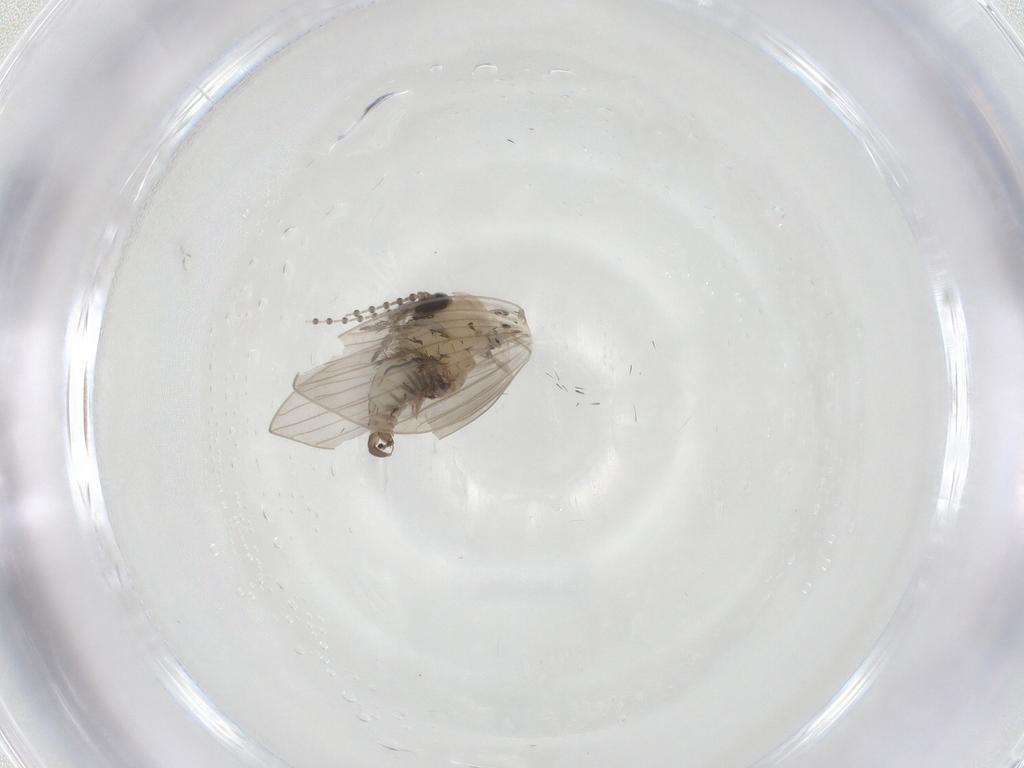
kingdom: Animalia
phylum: Arthropoda
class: Insecta
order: Diptera
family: Psychodidae
